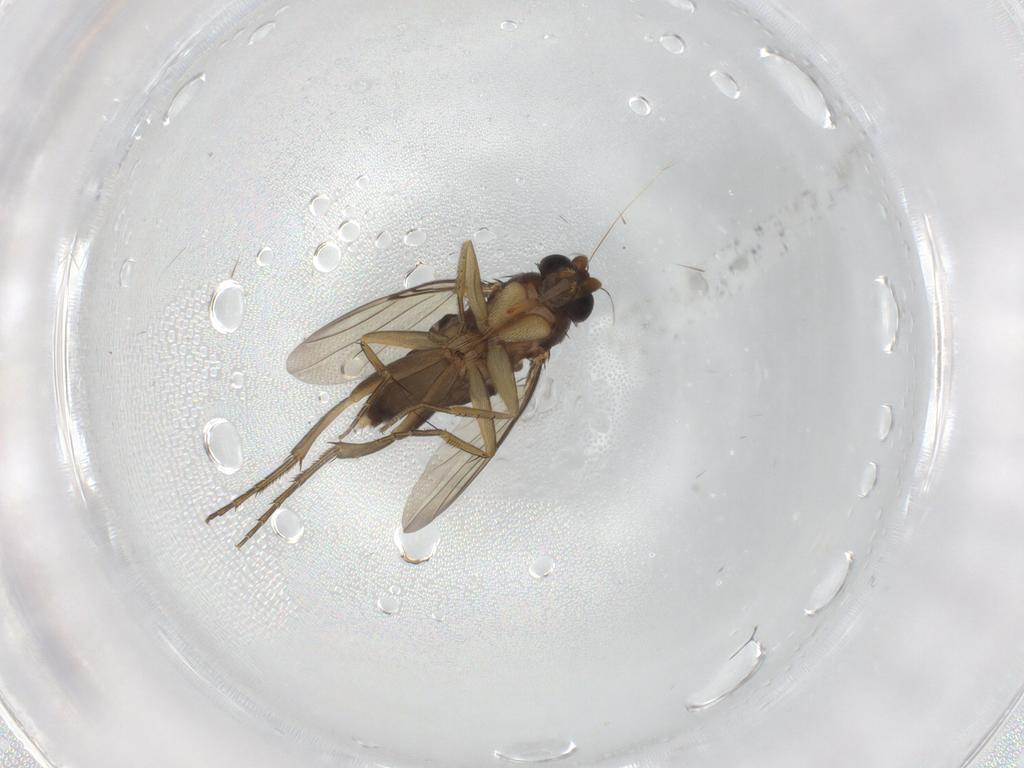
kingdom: Animalia
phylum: Arthropoda
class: Insecta
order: Diptera
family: Phoridae
